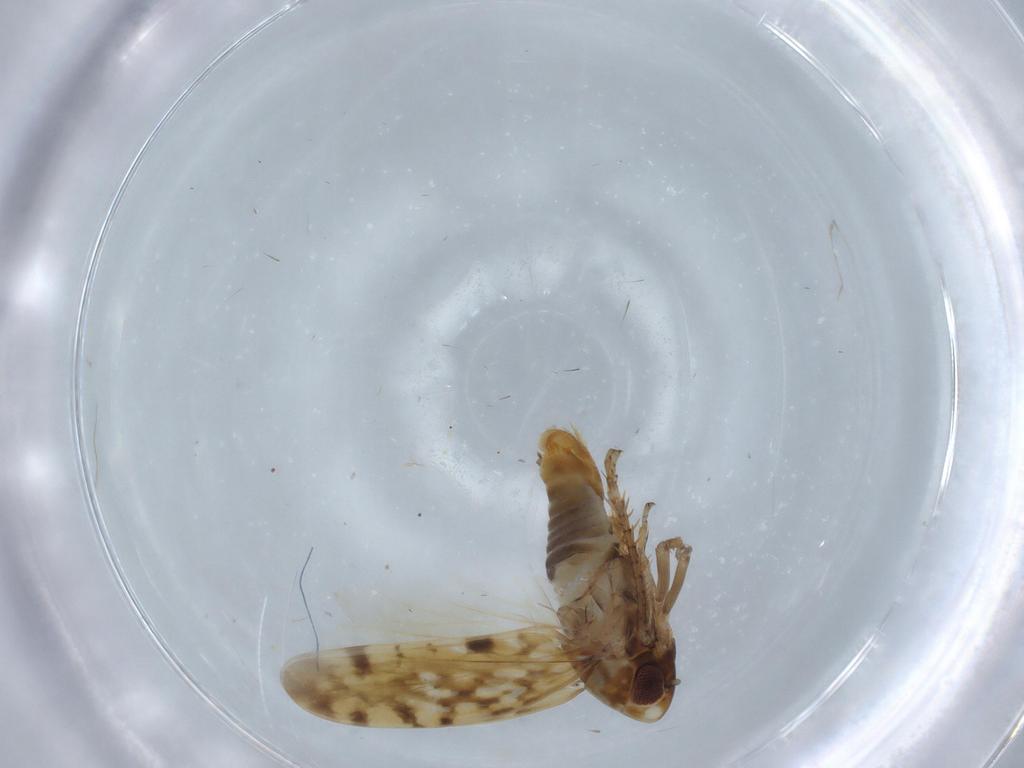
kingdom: Animalia
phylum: Arthropoda
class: Insecta
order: Hemiptera
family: Cicadellidae
